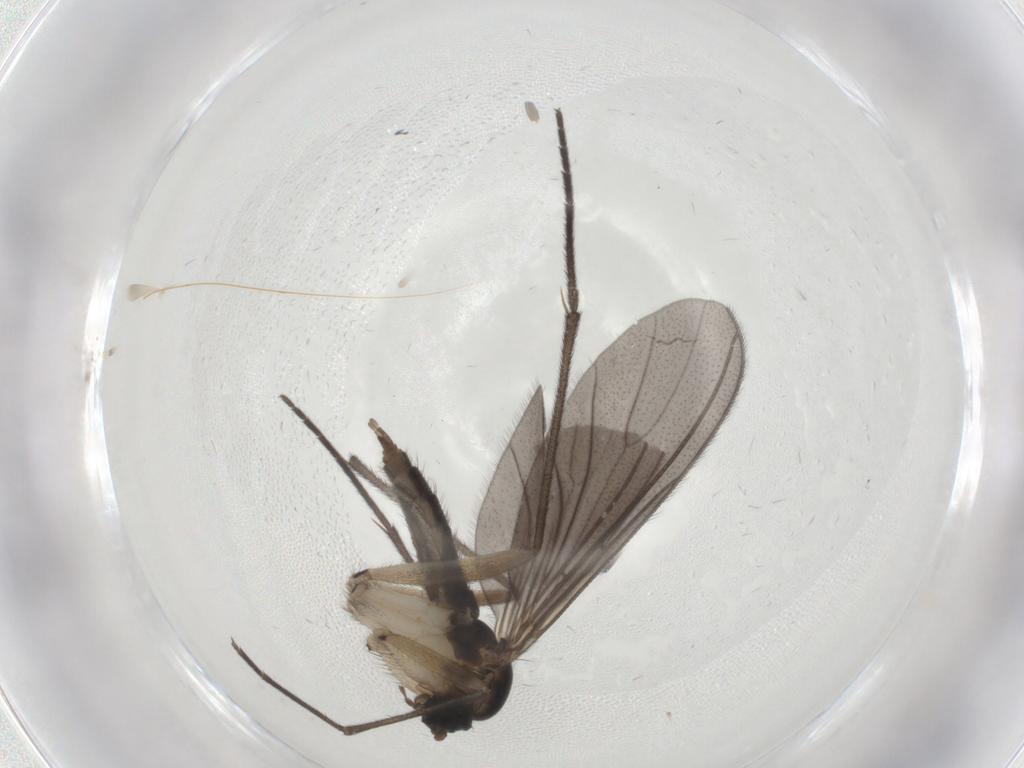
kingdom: Animalia
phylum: Arthropoda
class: Insecta
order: Diptera
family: Sciaridae
